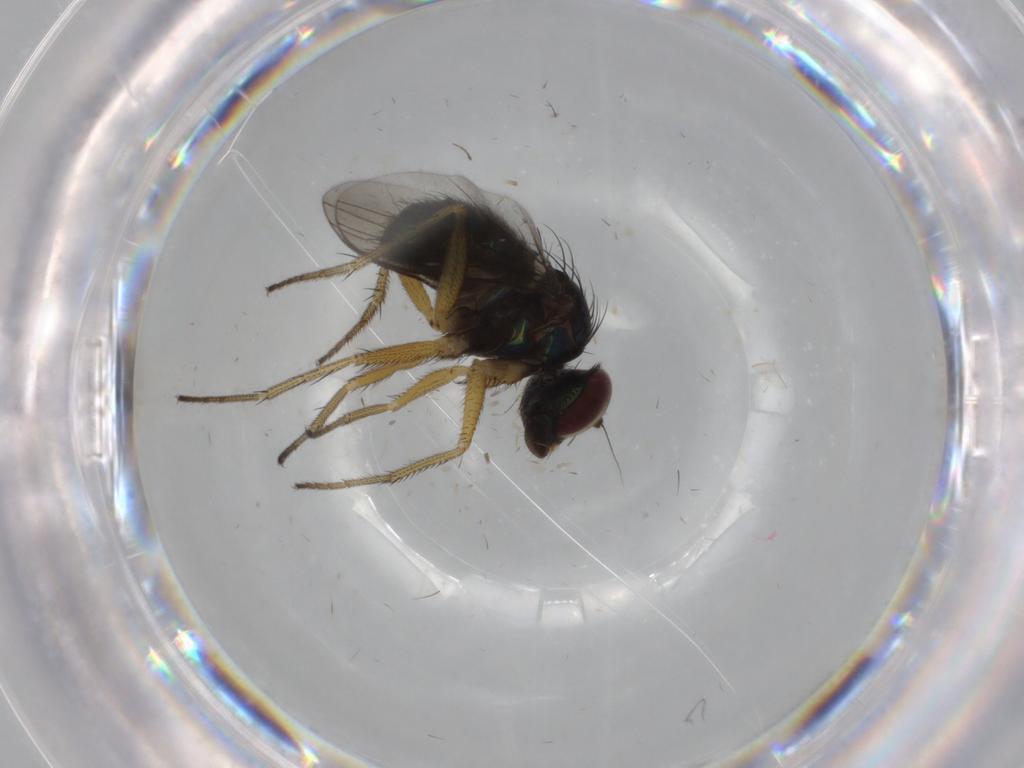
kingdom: Animalia
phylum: Arthropoda
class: Insecta
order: Diptera
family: Dolichopodidae
